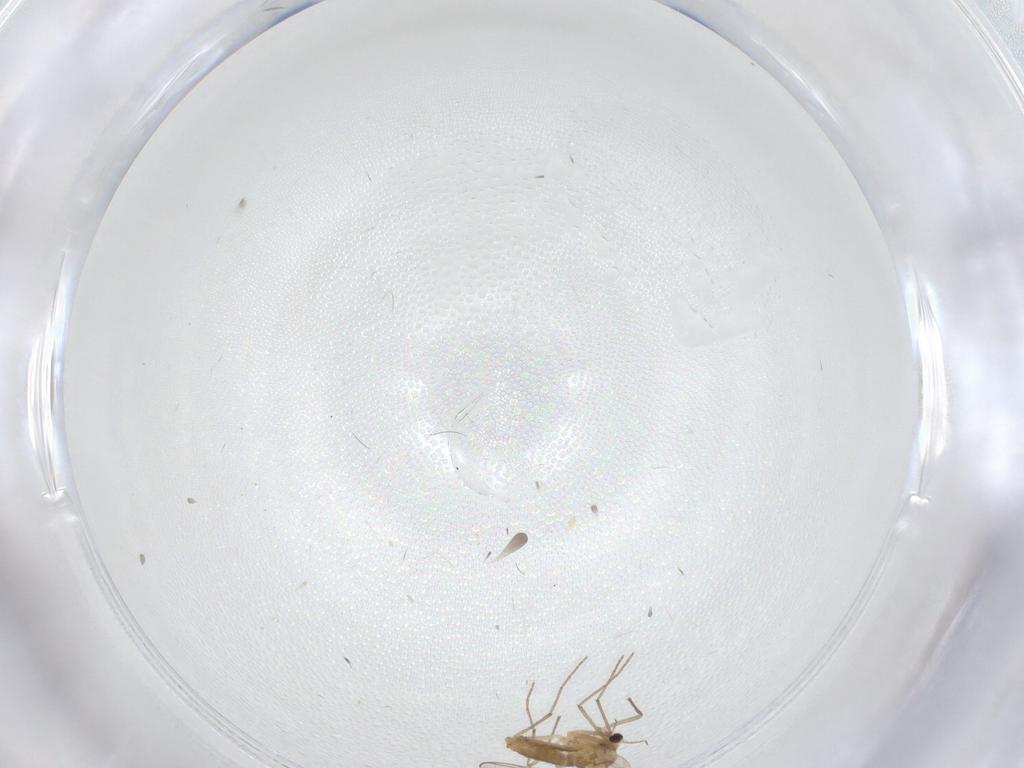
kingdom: Animalia
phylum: Arthropoda
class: Insecta
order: Diptera
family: Chironomidae
